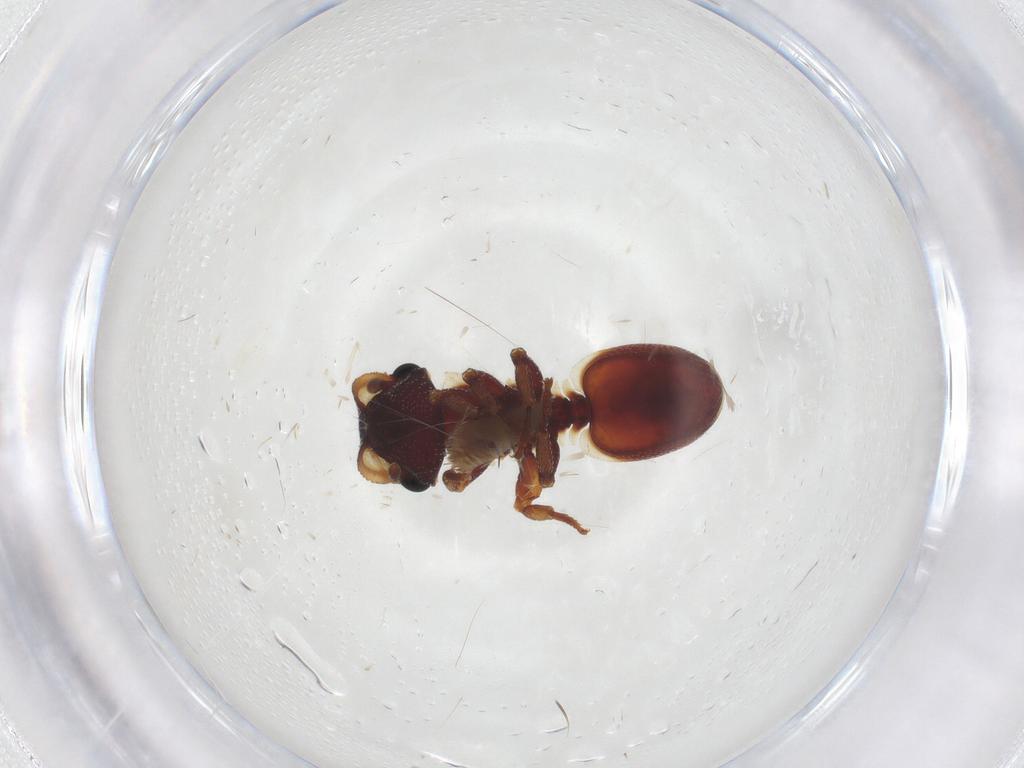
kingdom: Animalia
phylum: Arthropoda
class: Insecta
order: Hymenoptera
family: Formicidae
